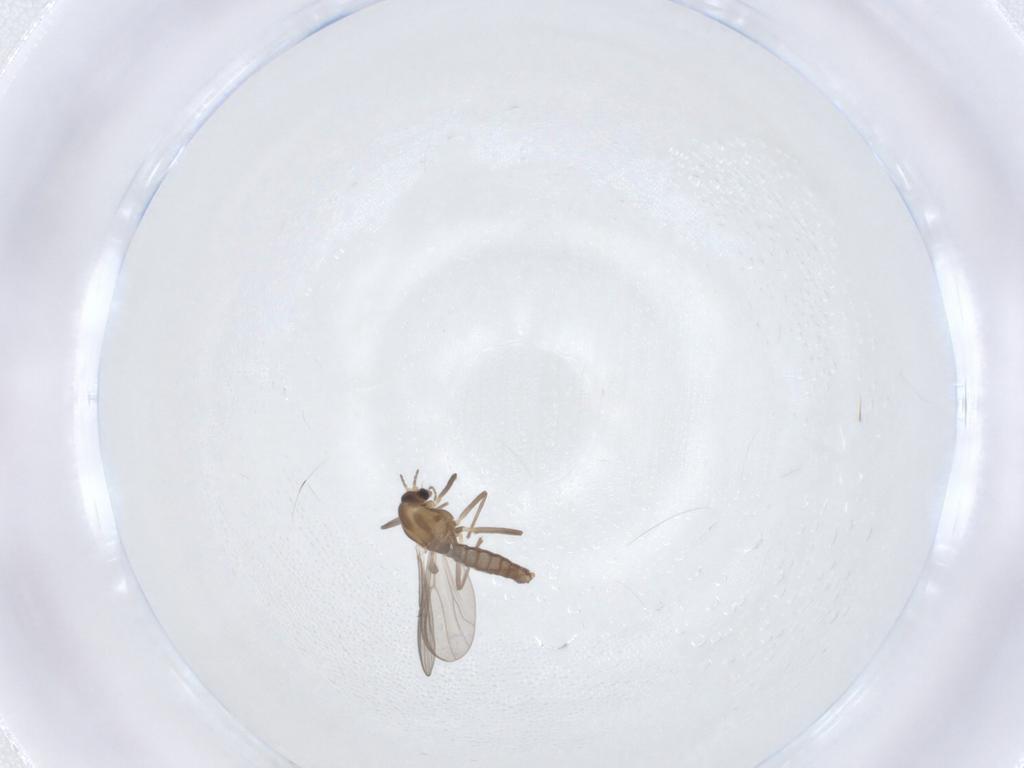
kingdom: Animalia
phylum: Arthropoda
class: Insecta
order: Diptera
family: Chironomidae
